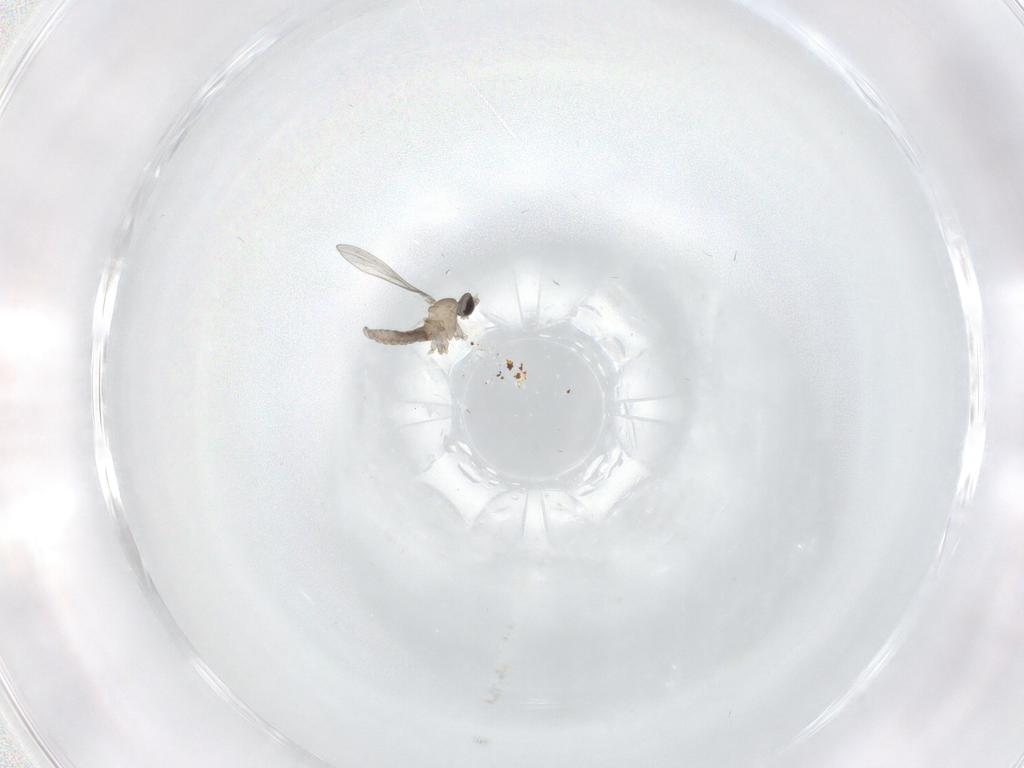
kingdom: Animalia
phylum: Arthropoda
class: Insecta
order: Diptera
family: Cecidomyiidae
